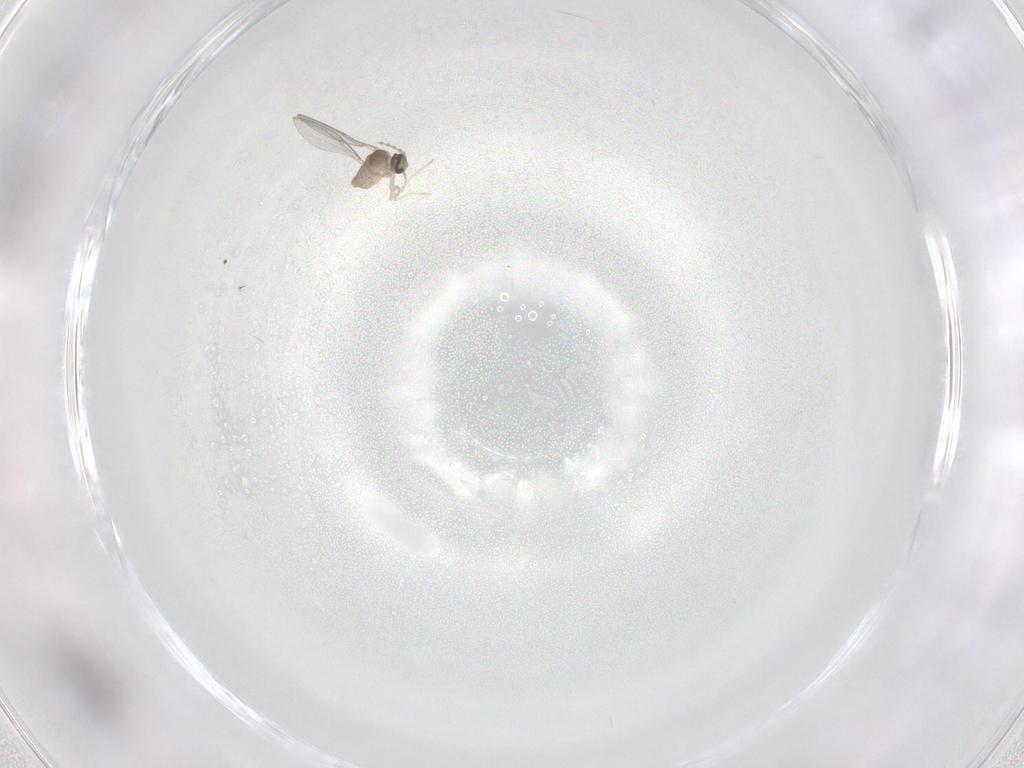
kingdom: Animalia
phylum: Arthropoda
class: Insecta
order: Diptera
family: Cecidomyiidae
